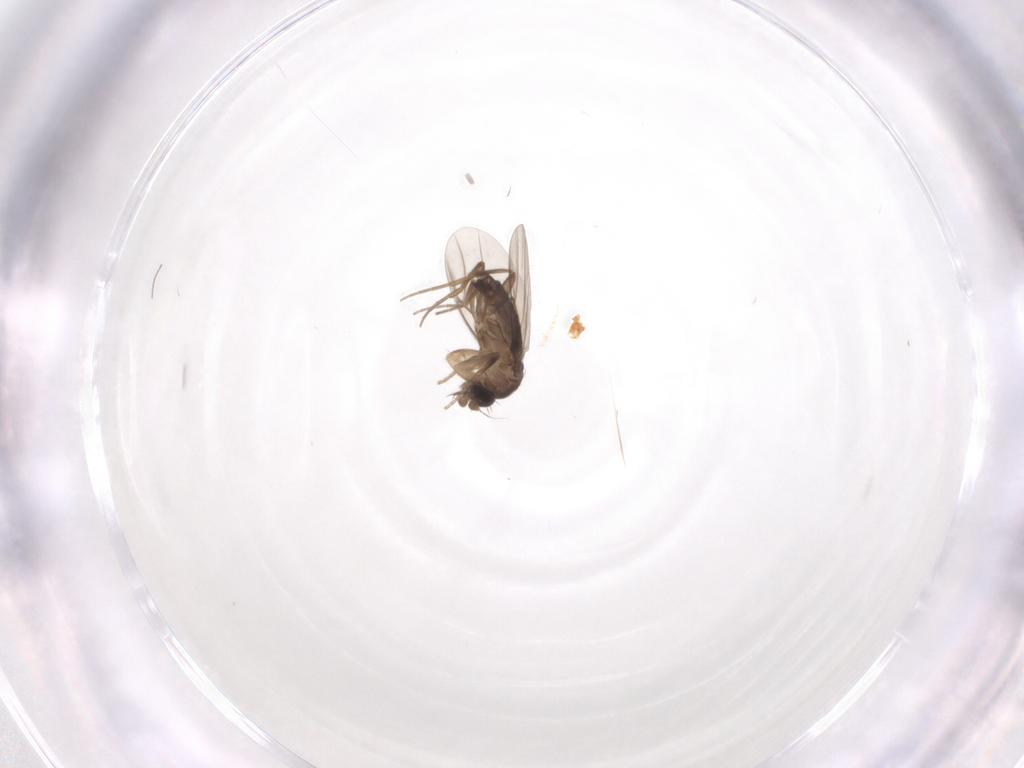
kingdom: Animalia
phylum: Arthropoda
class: Insecta
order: Diptera
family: Phoridae
